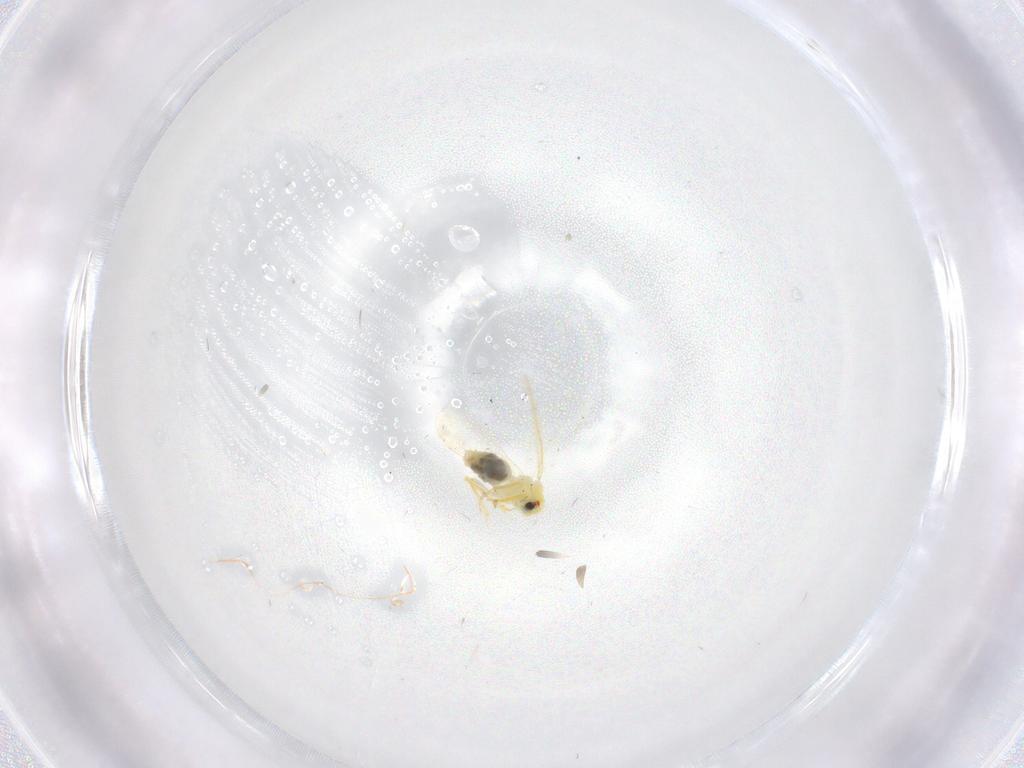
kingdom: Animalia
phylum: Arthropoda
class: Insecta
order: Hemiptera
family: Aleyrodidae
